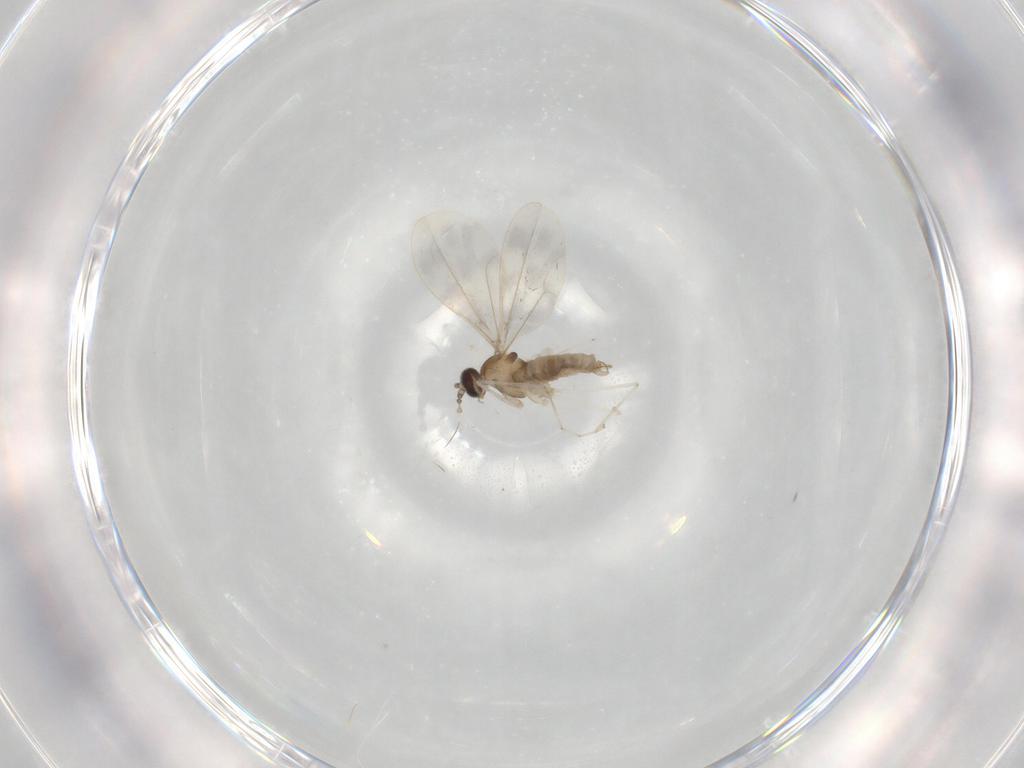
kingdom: Animalia
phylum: Arthropoda
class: Insecta
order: Diptera
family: Cecidomyiidae
